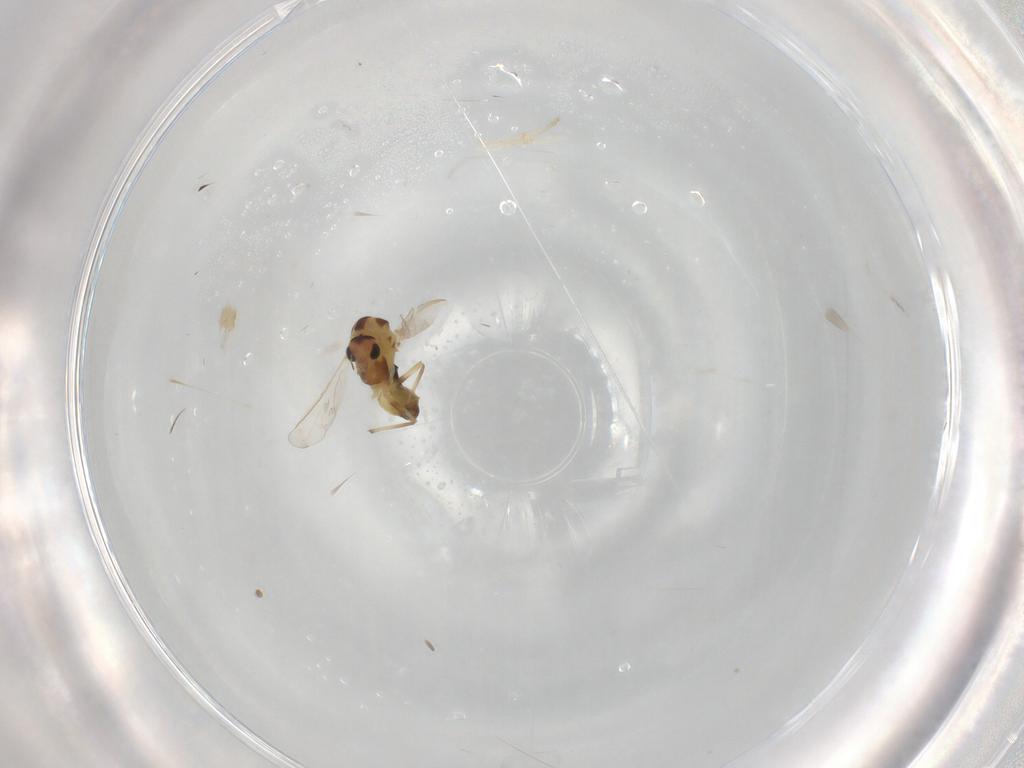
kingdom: Animalia
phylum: Arthropoda
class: Insecta
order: Diptera
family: Chironomidae
